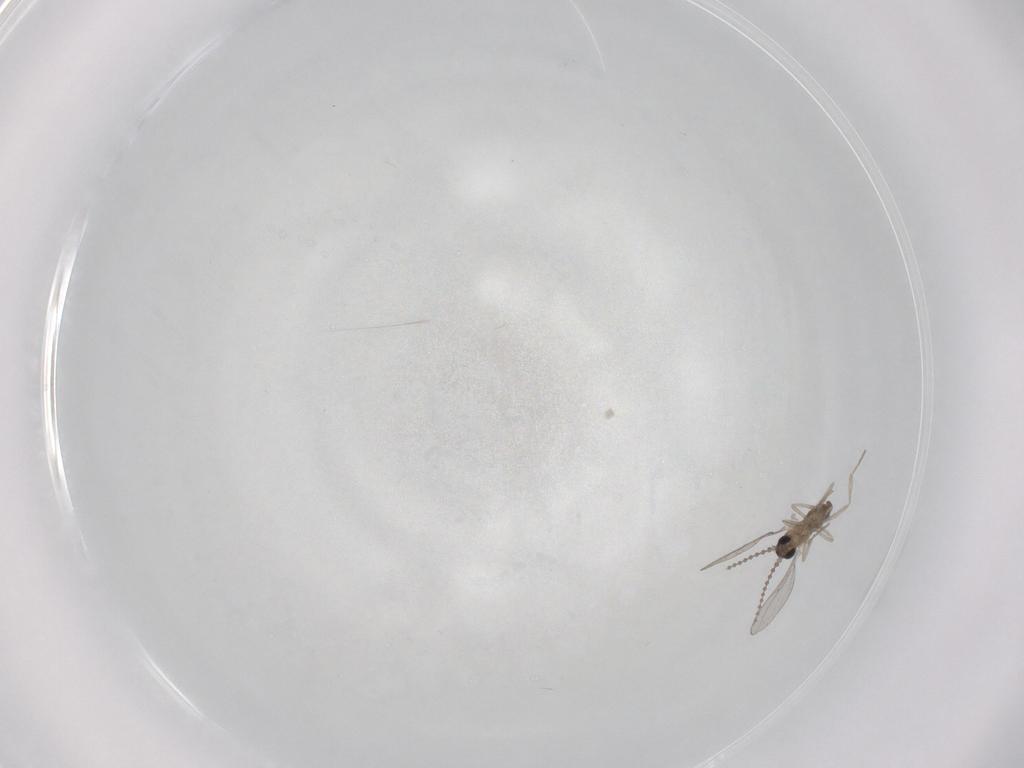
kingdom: Animalia
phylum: Arthropoda
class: Insecta
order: Diptera
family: Cecidomyiidae
